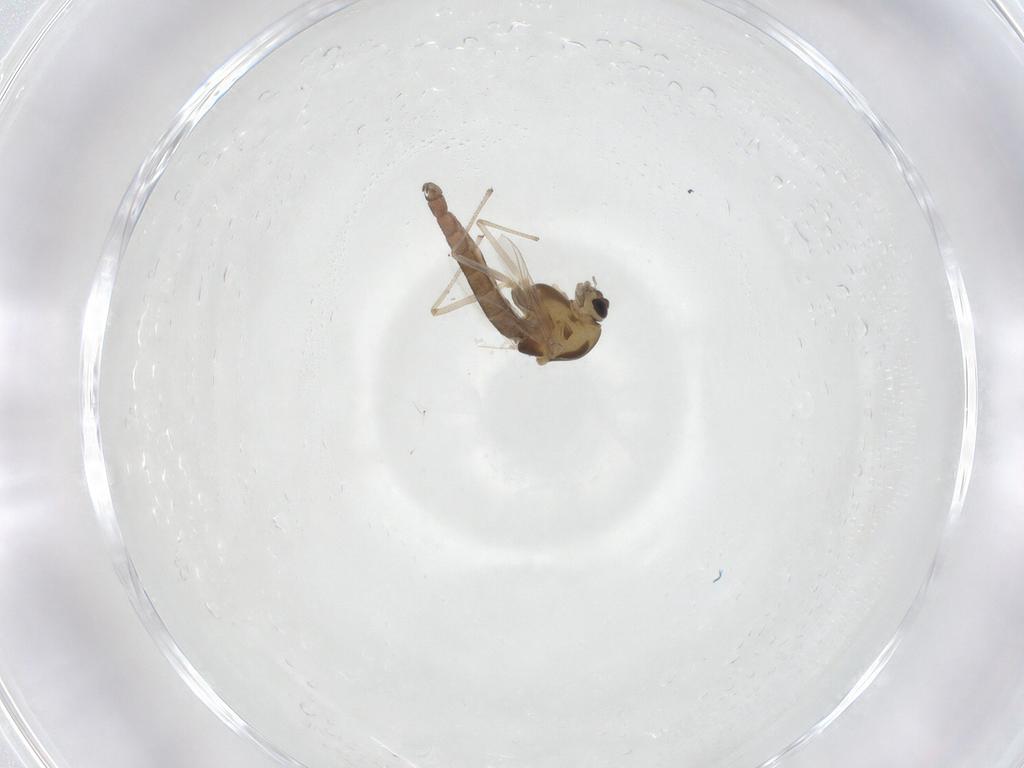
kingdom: Animalia
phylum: Arthropoda
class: Insecta
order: Diptera
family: Chironomidae
